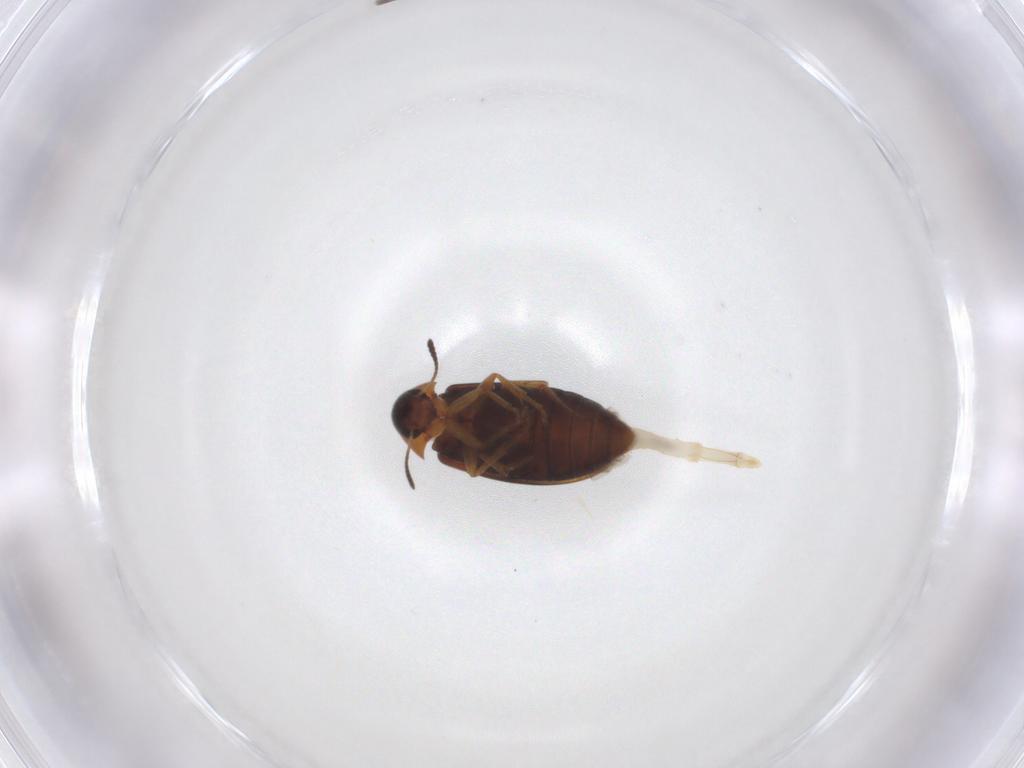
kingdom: Animalia
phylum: Arthropoda
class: Insecta
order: Coleoptera
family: Scraptiidae
